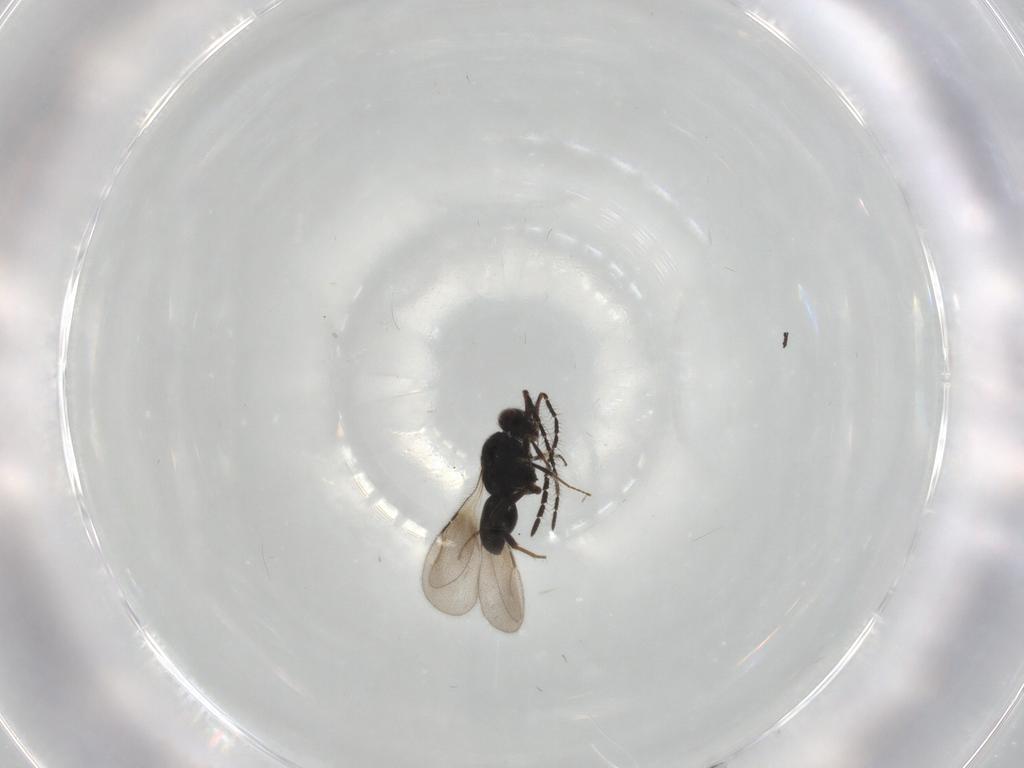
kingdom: Animalia
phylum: Arthropoda
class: Insecta
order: Hymenoptera
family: Ceraphronidae
